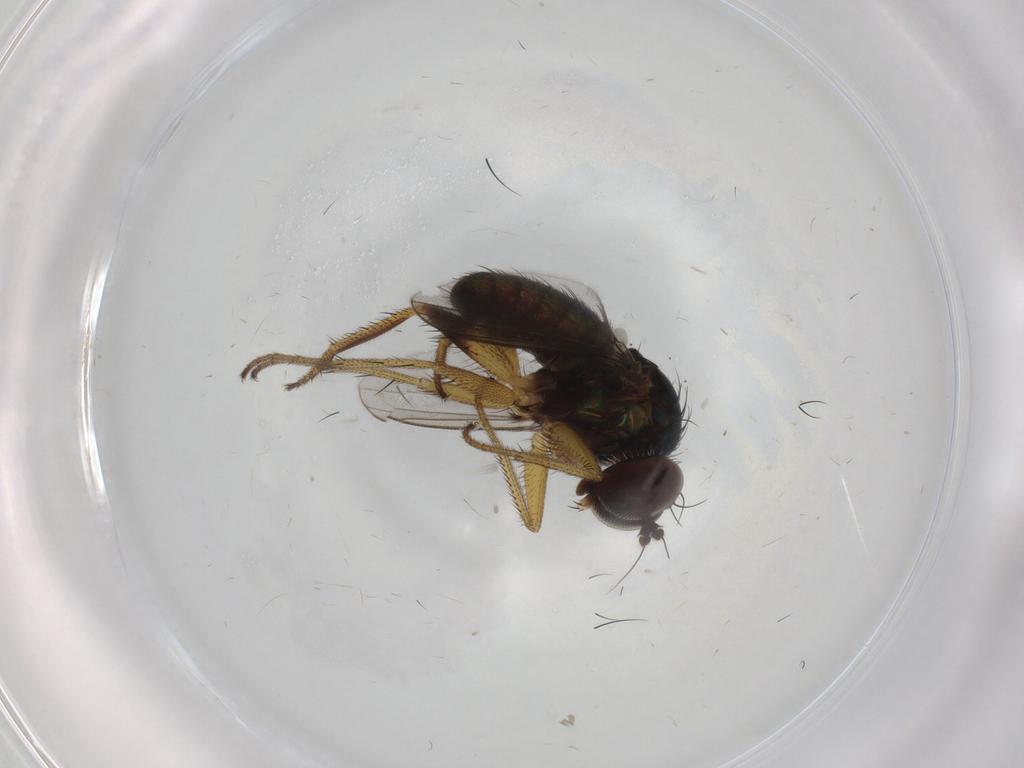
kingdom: Animalia
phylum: Arthropoda
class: Insecta
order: Diptera
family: Dolichopodidae
